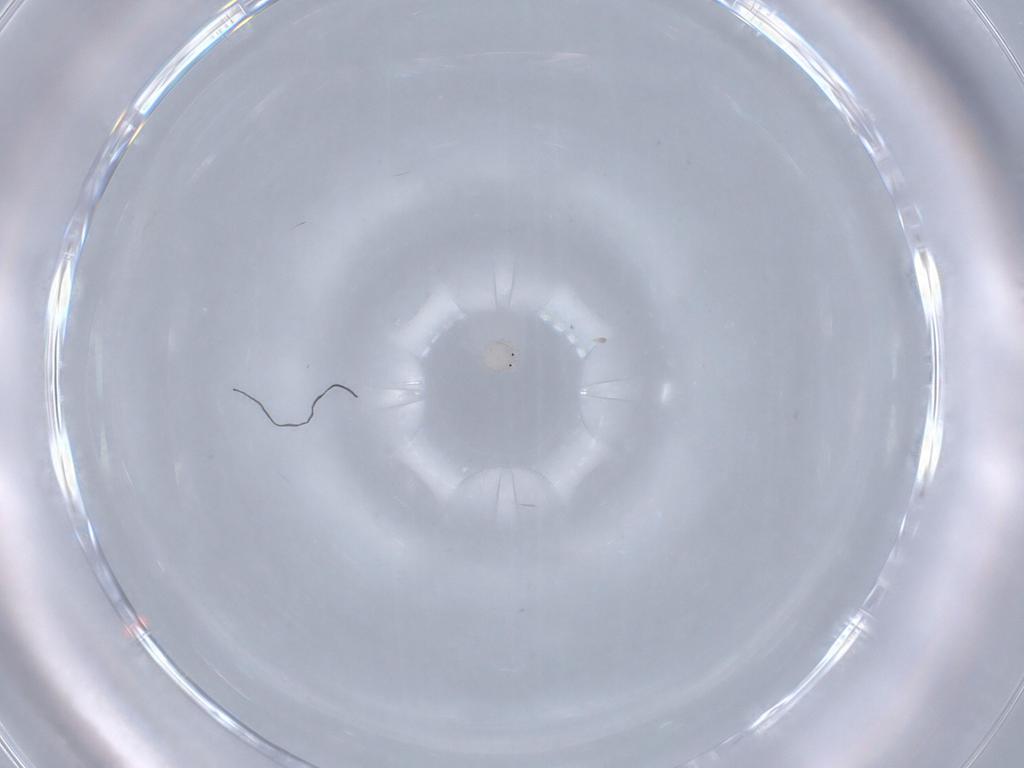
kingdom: Animalia
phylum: Arthropoda
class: Arachnida
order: Trombidiformes
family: Lebertiidae
